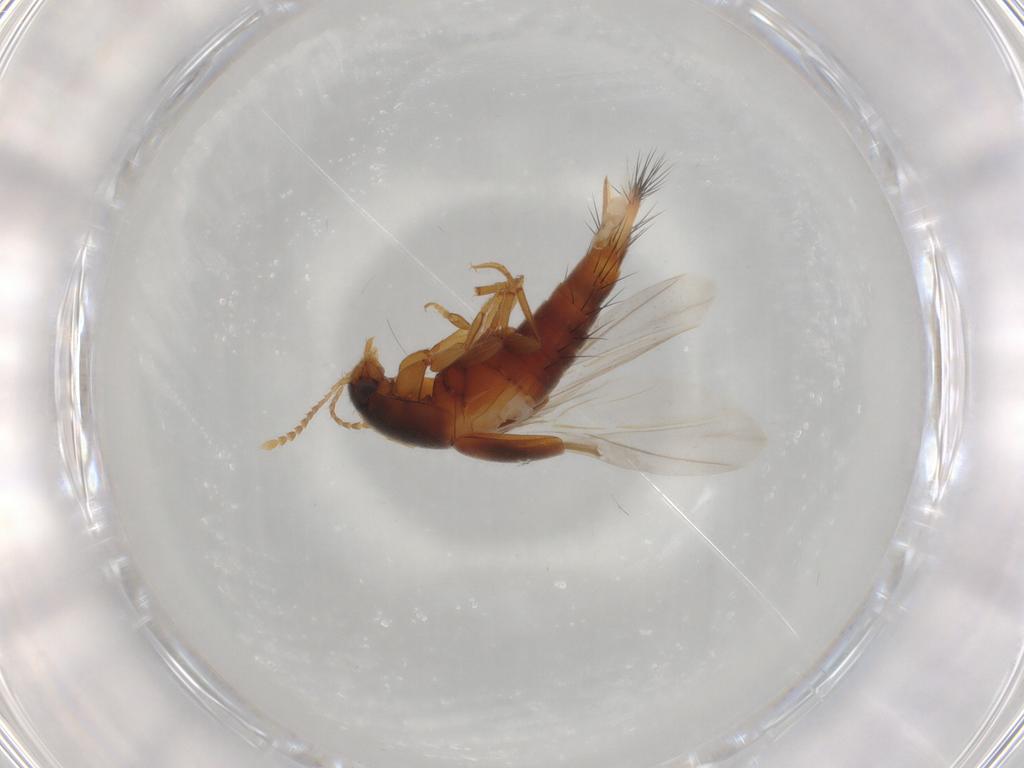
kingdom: Animalia
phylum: Arthropoda
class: Insecta
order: Coleoptera
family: Staphylinidae
